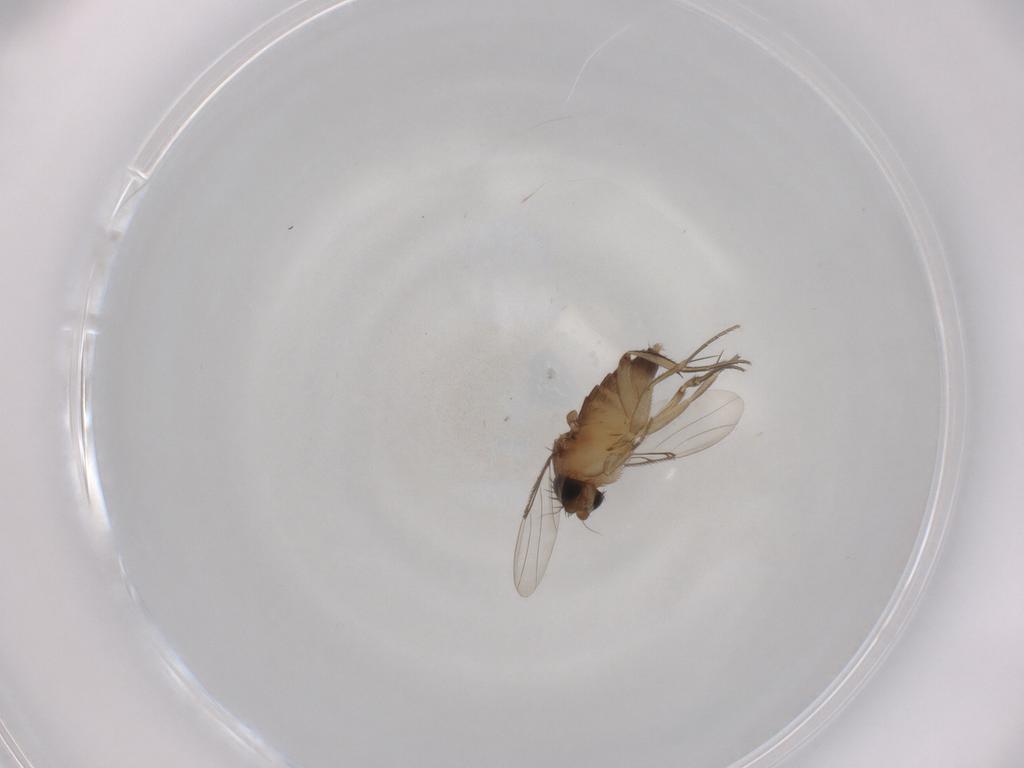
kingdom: Animalia
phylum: Arthropoda
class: Insecta
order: Diptera
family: Phoridae
